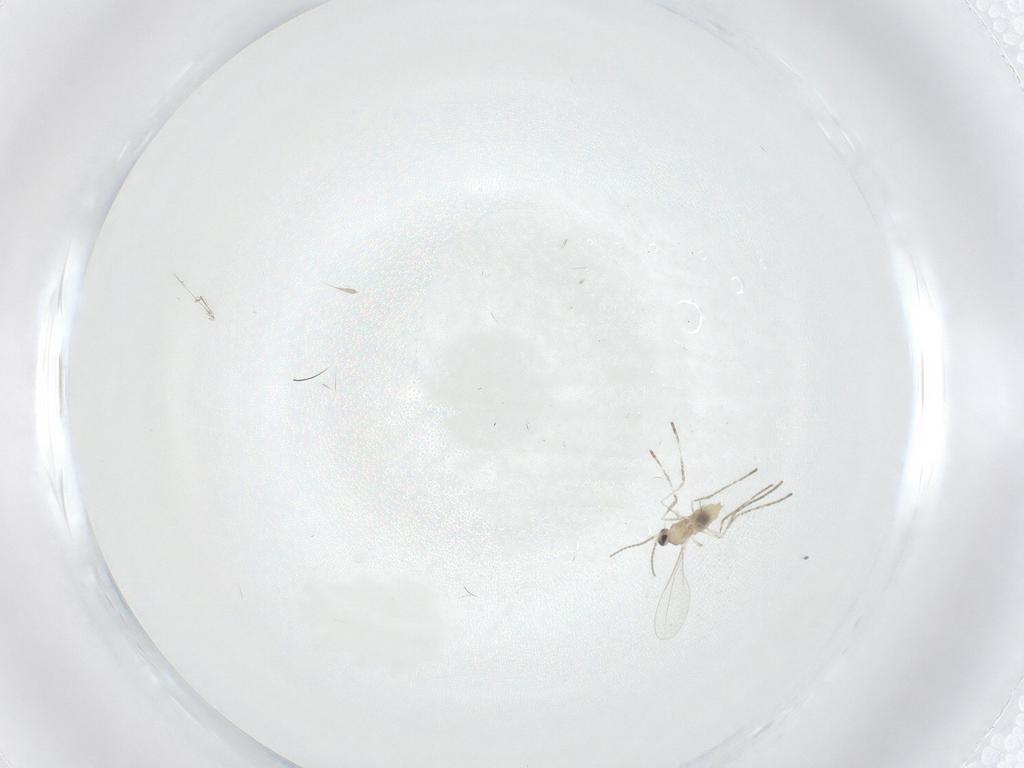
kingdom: Animalia
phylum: Arthropoda
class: Insecta
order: Diptera
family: Cecidomyiidae
